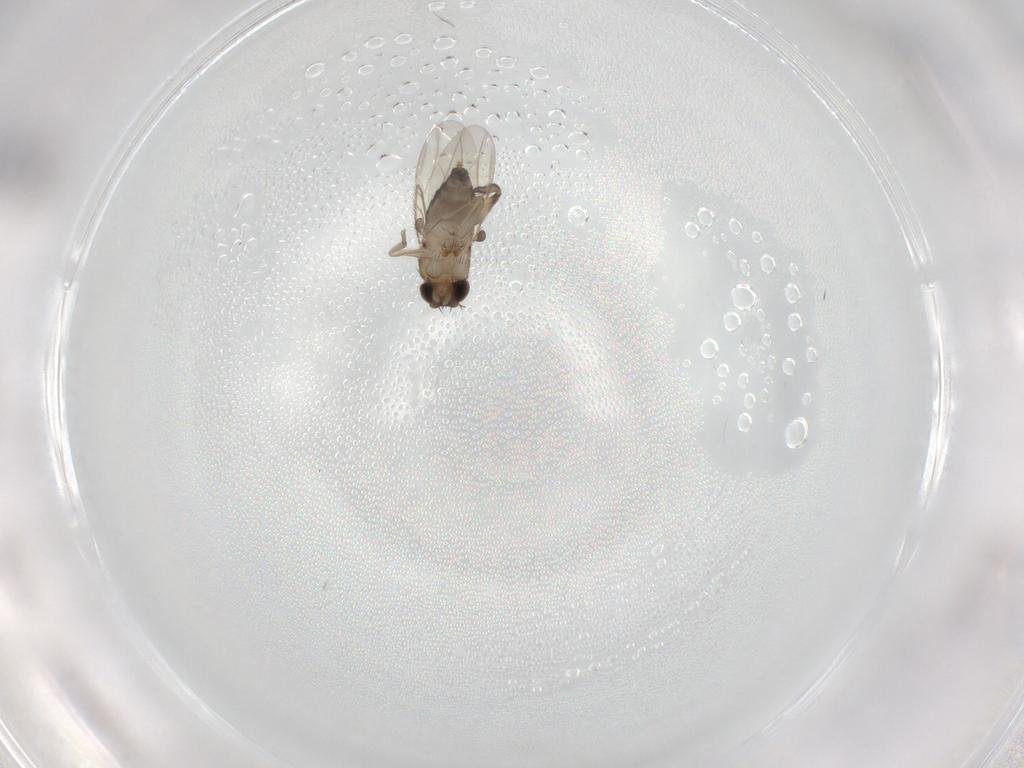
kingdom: Animalia
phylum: Arthropoda
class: Insecta
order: Diptera
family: Phoridae
